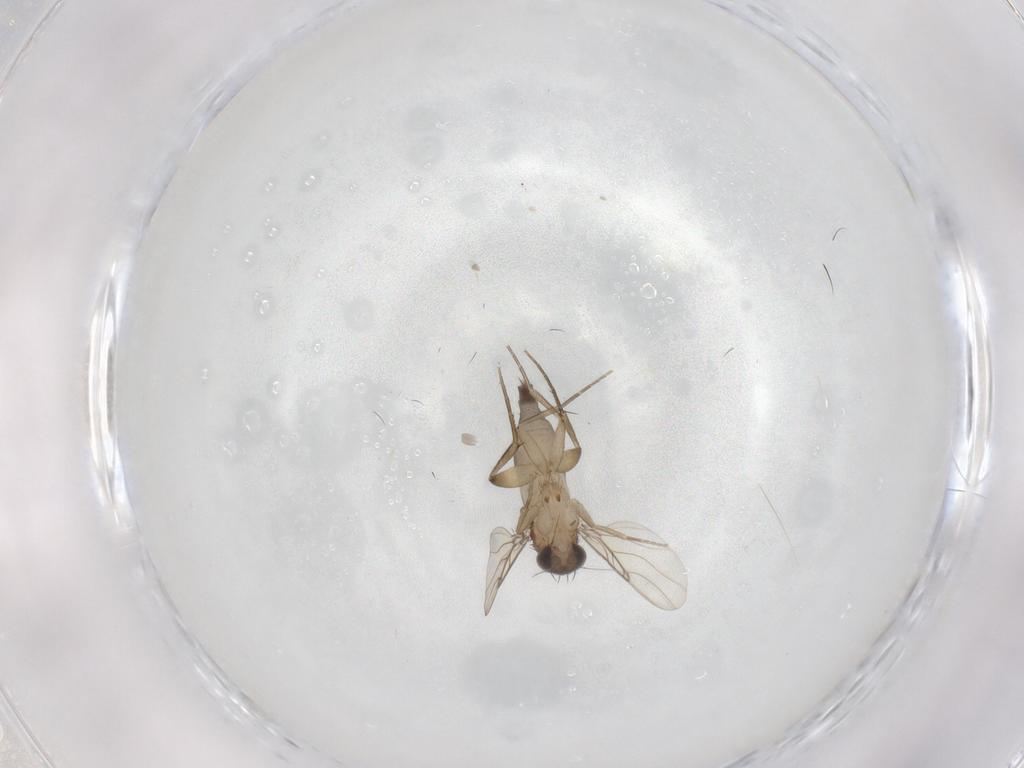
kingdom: Animalia
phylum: Arthropoda
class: Insecta
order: Diptera
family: Phoridae
